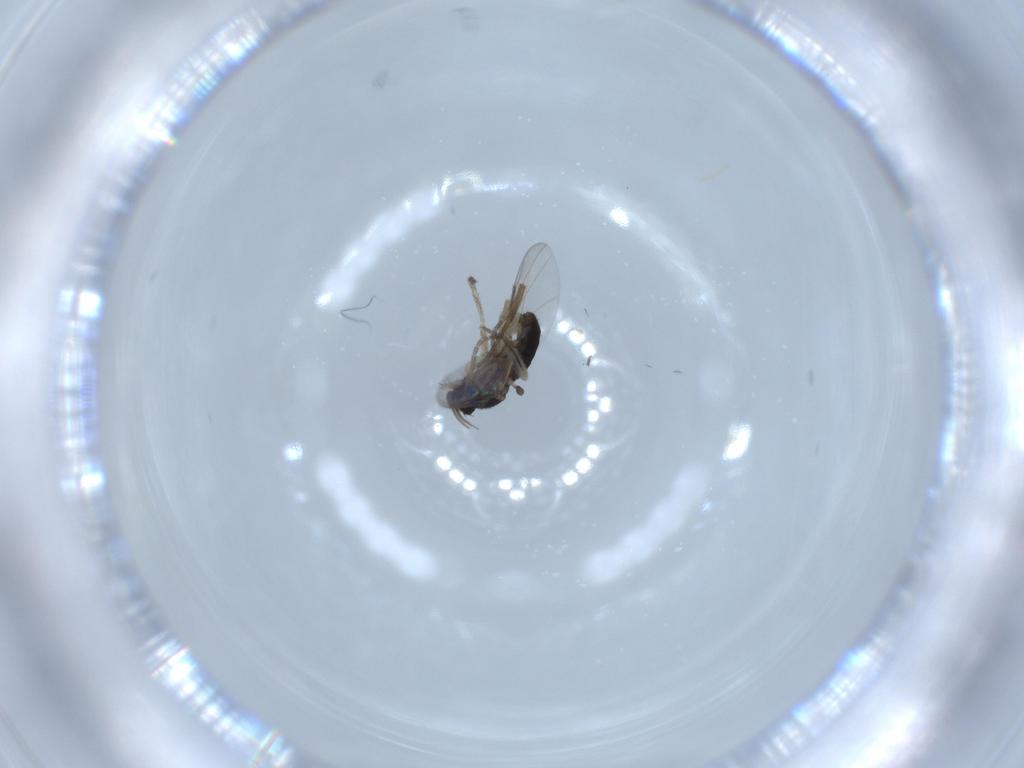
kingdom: Animalia
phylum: Arthropoda
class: Insecta
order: Diptera
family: Phoridae
